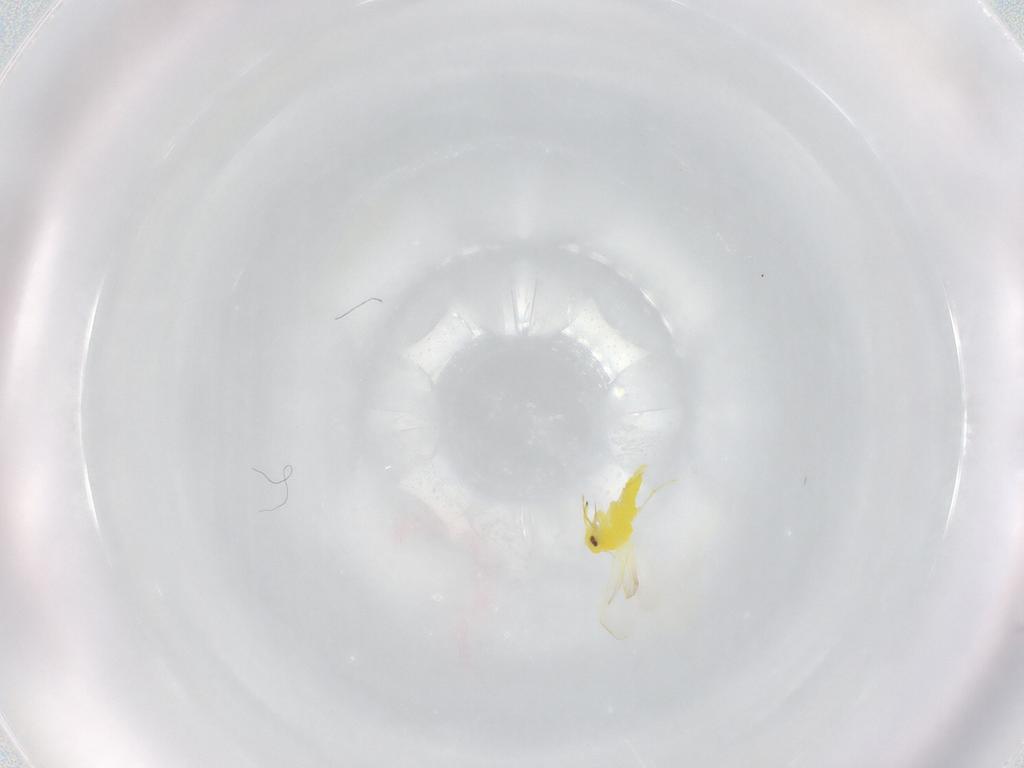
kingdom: Animalia
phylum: Arthropoda
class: Insecta
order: Hemiptera
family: Aleyrodidae
